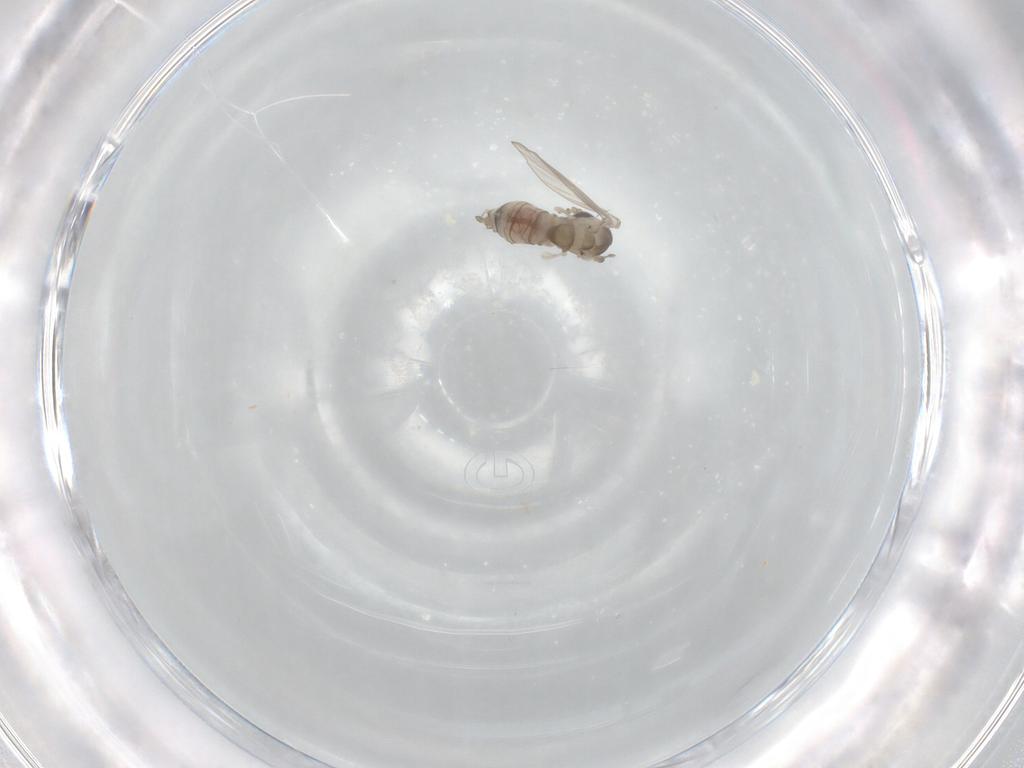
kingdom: Animalia
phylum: Arthropoda
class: Insecta
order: Diptera
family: Psychodidae
